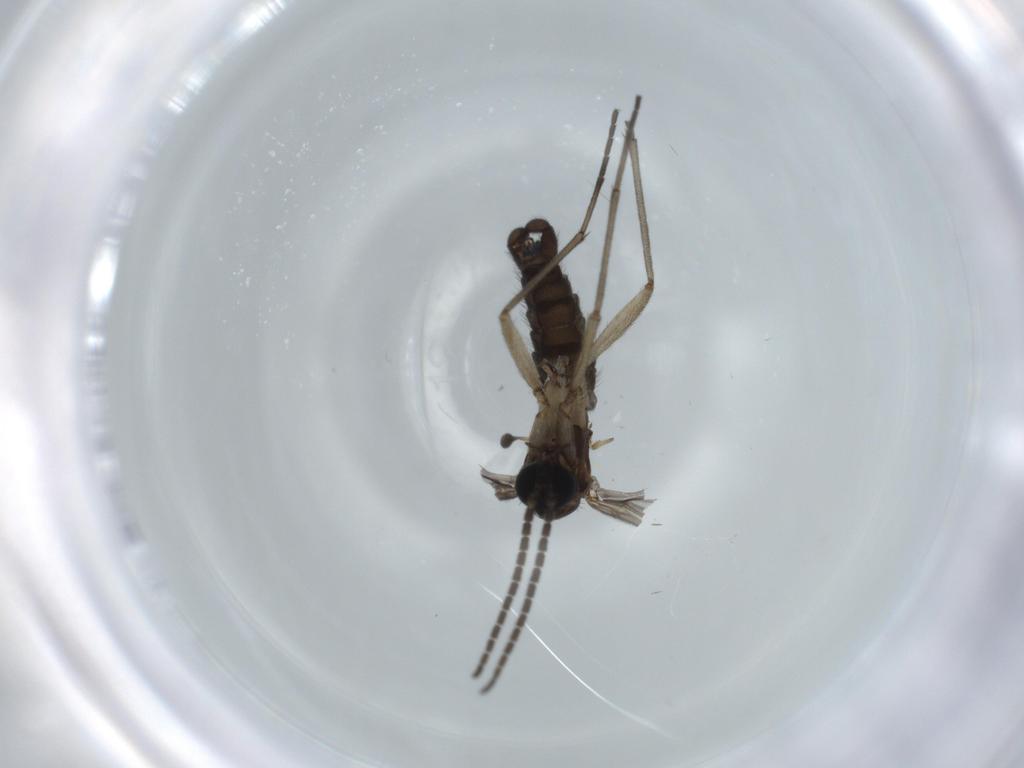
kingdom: Animalia
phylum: Arthropoda
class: Insecta
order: Diptera
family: Sciaridae
